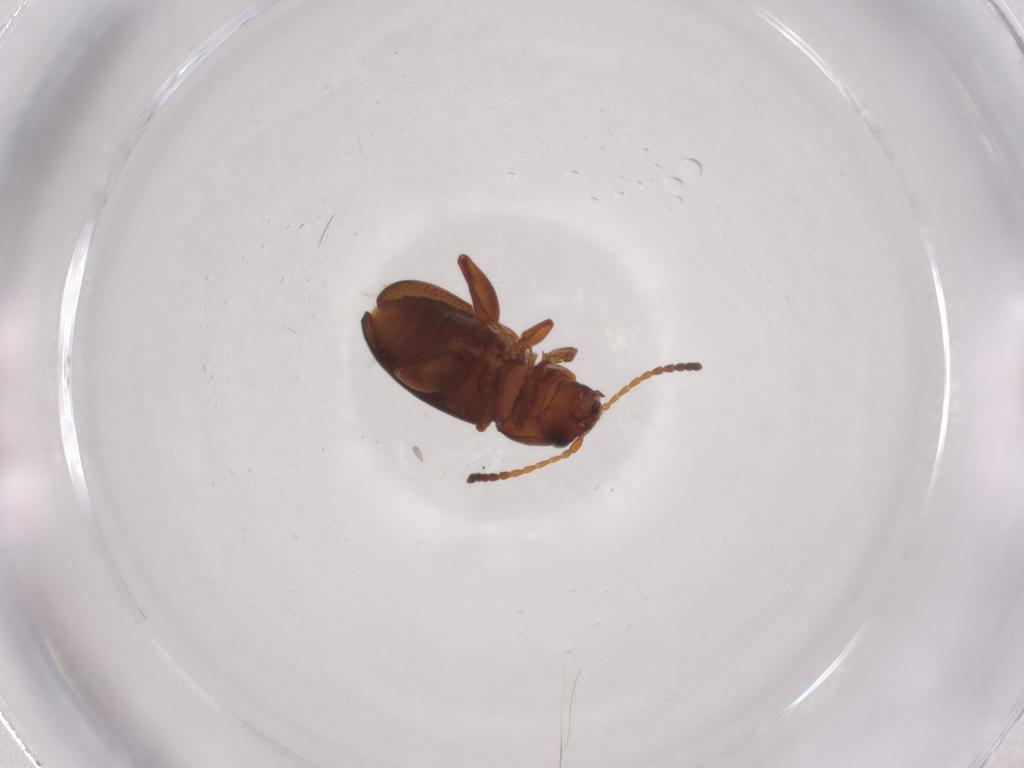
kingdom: Animalia
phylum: Arthropoda
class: Insecta
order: Coleoptera
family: Chrysomelidae
